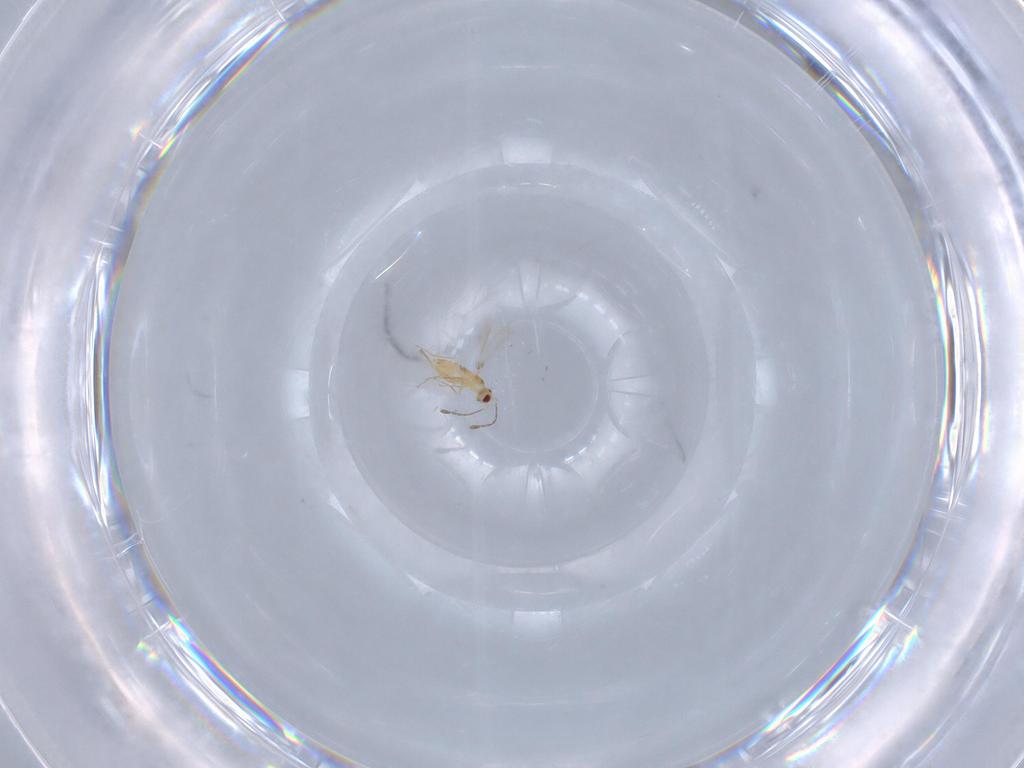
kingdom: Animalia
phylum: Arthropoda
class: Insecta
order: Hymenoptera
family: Mymaridae
